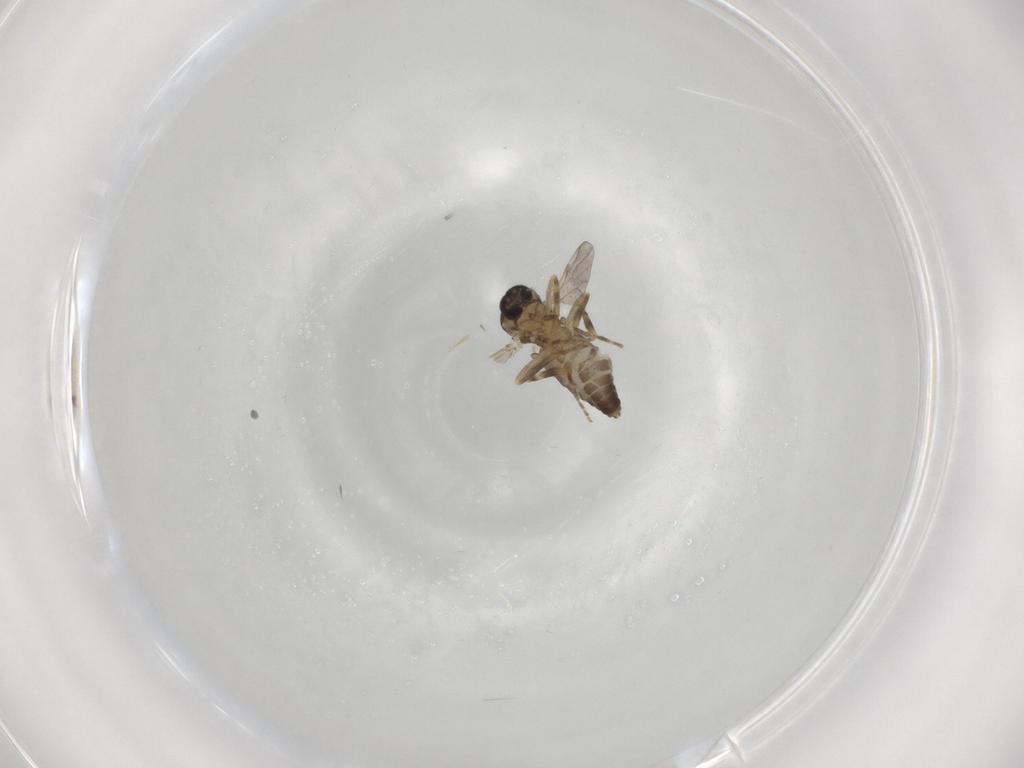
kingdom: Animalia
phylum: Arthropoda
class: Insecta
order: Diptera
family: Ceratopogonidae
